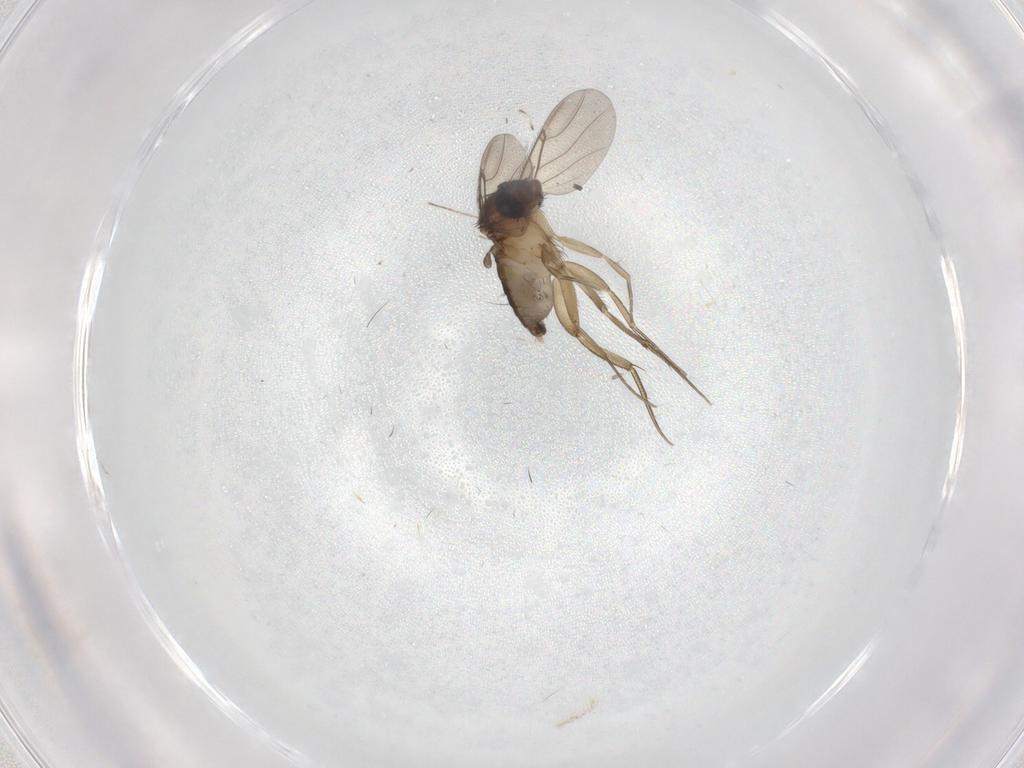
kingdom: Animalia
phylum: Arthropoda
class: Insecta
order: Diptera
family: Phoridae
